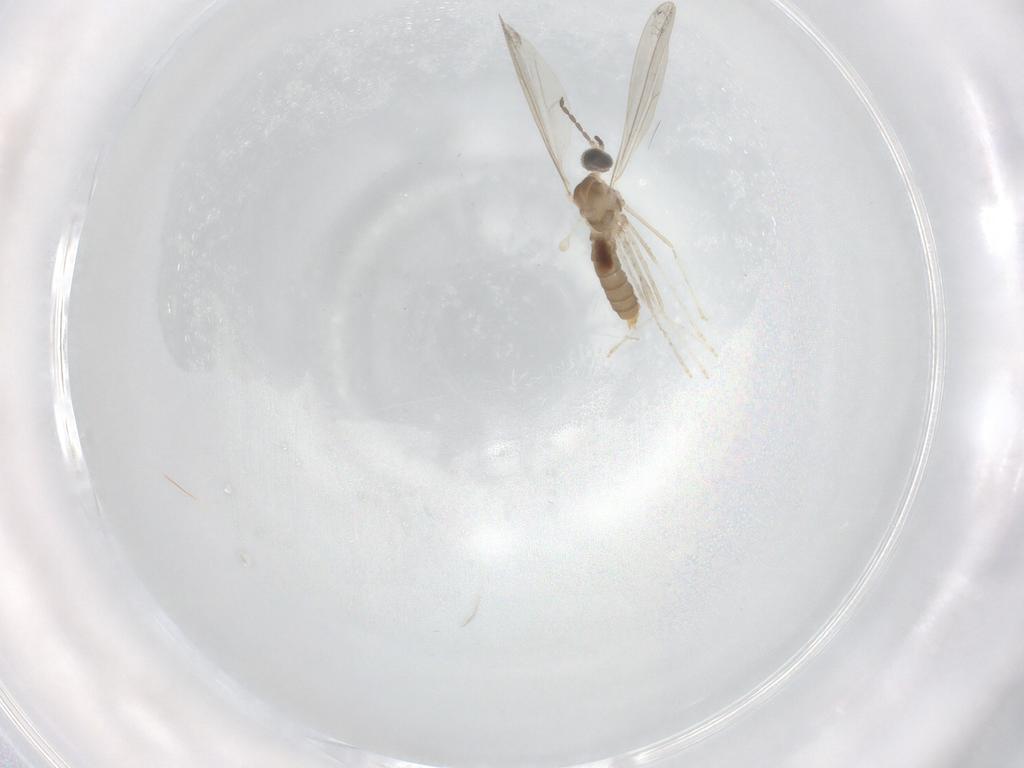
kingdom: Animalia
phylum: Arthropoda
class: Insecta
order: Diptera
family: Cecidomyiidae
